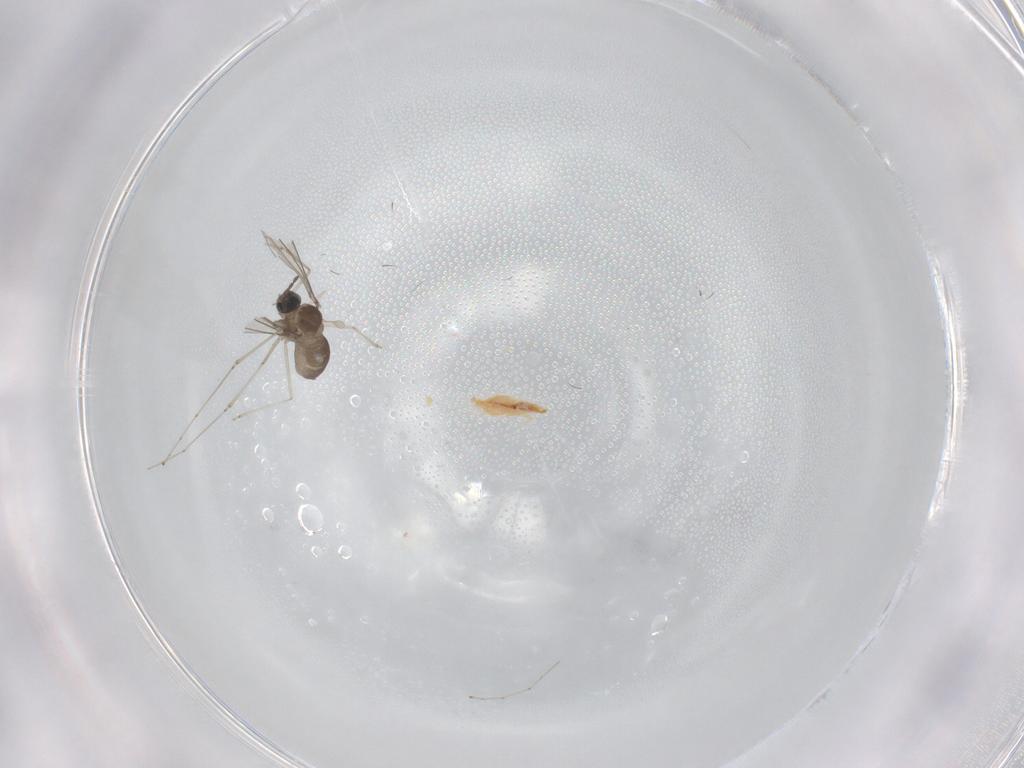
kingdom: Animalia
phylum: Arthropoda
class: Insecta
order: Diptera
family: Cecidomyiidae
